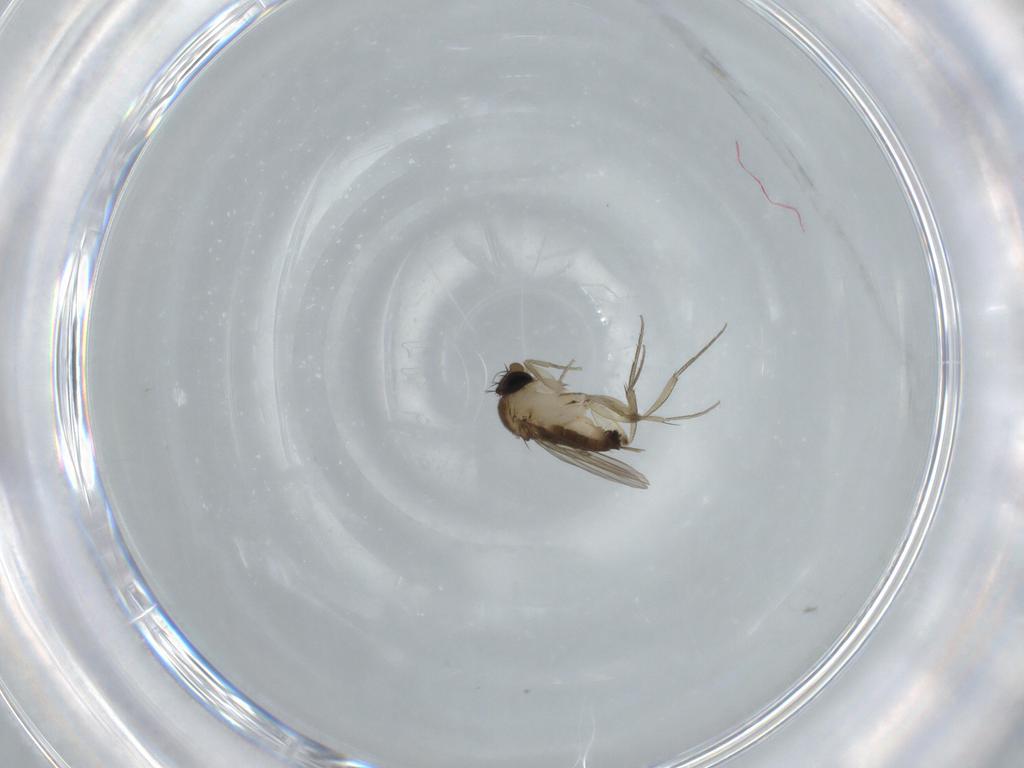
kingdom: Animalia
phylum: Arthropoda
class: Insecta
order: Diptera
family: Phoridae
